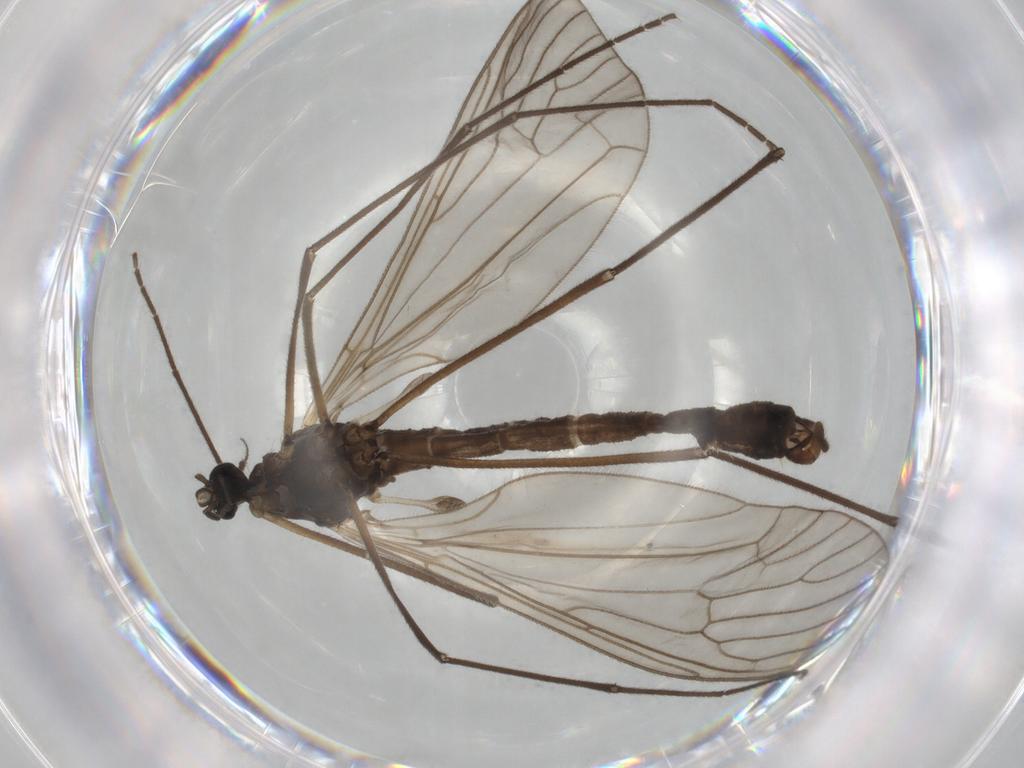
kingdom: Animalia
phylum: Arthropoda
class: Insecta
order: Diptera
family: Trichoceridae
